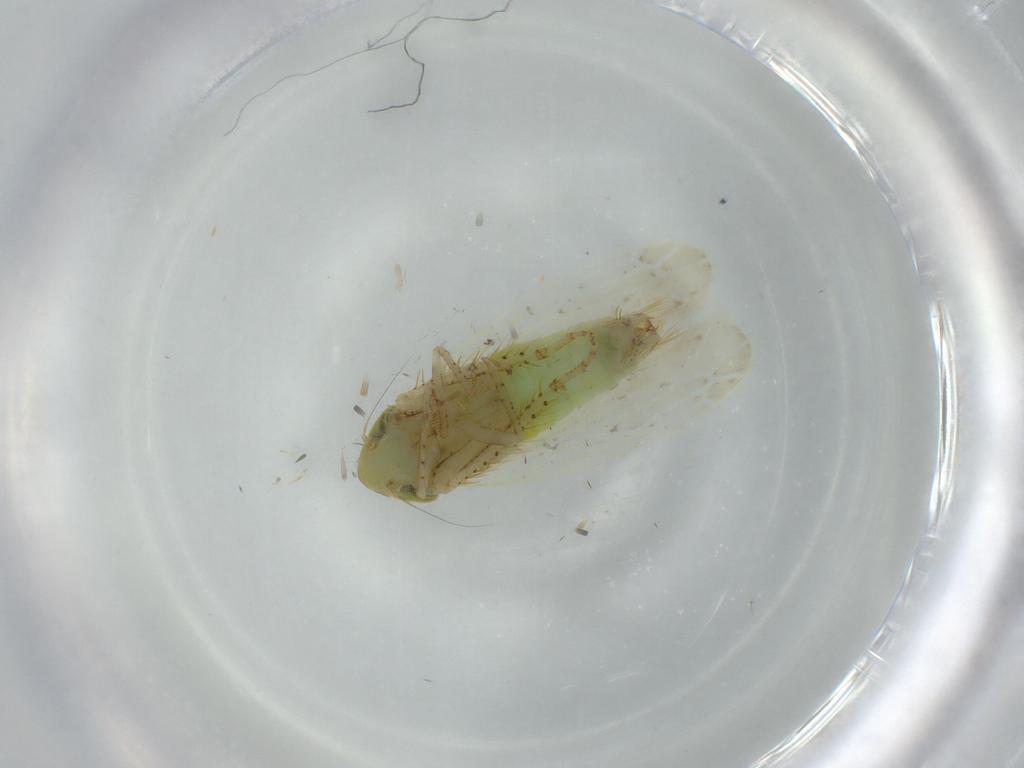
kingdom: Animalia
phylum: Arthropoda
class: Insecta
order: Hemiptera
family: Cicadellidae
